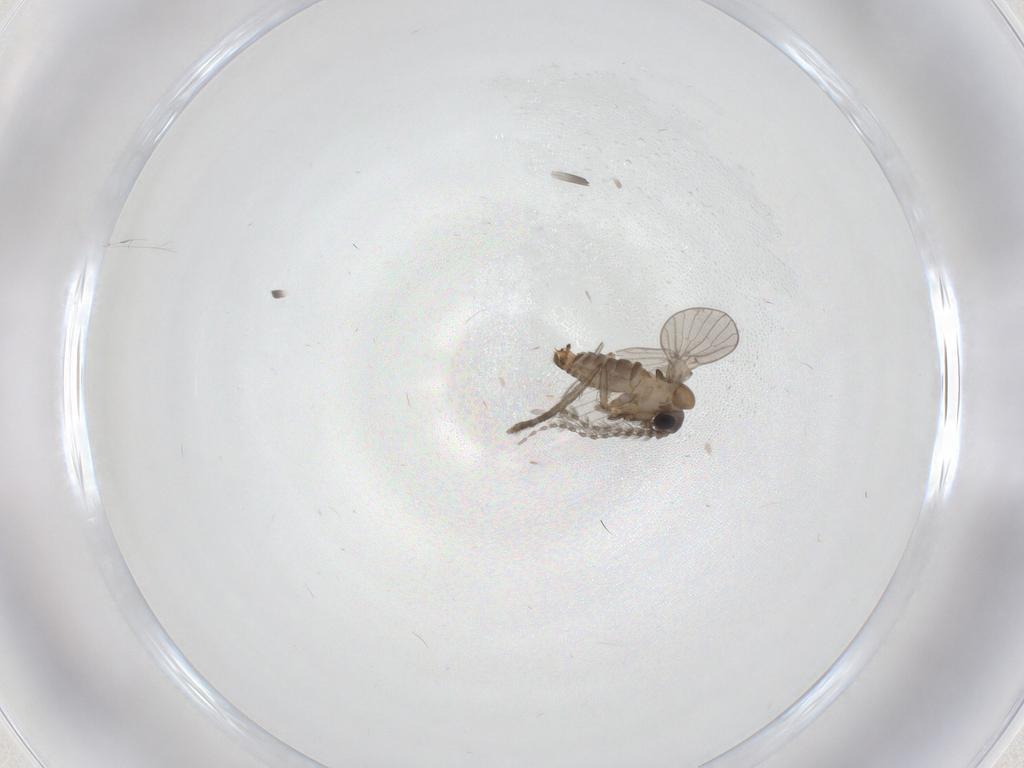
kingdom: Animalia
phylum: Arthropoda
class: Insecta
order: Diptera
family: Psychodidae
